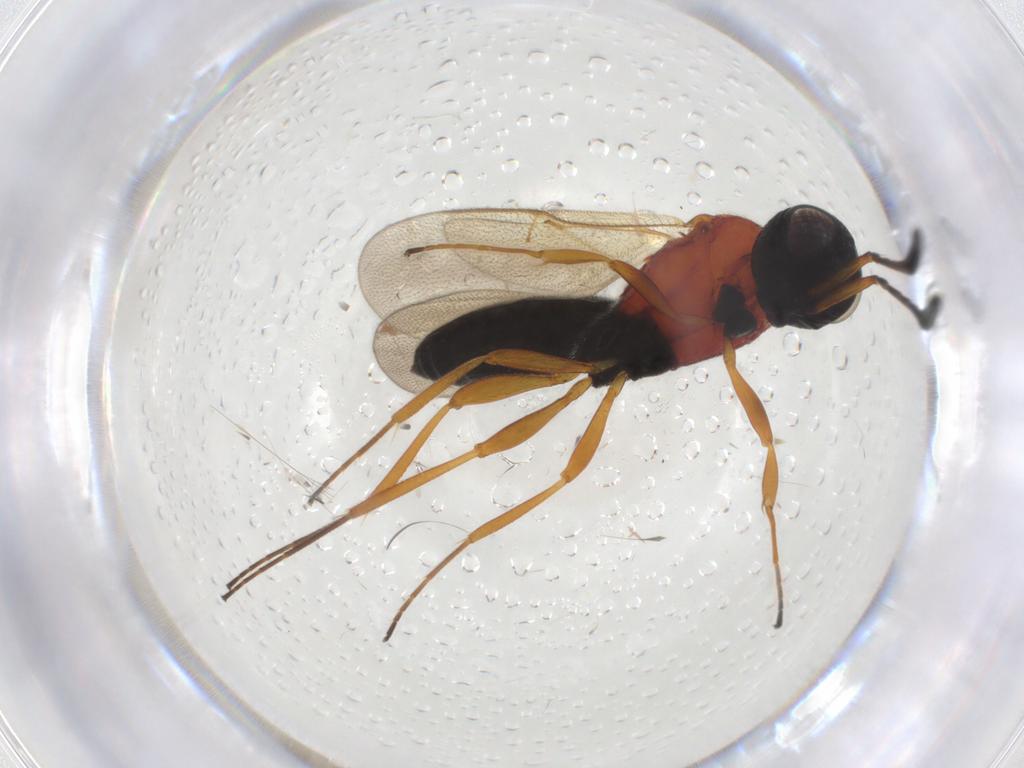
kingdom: Animalia
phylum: Arthropoda
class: Insecta
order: Hymenoptera
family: Scelionidae
